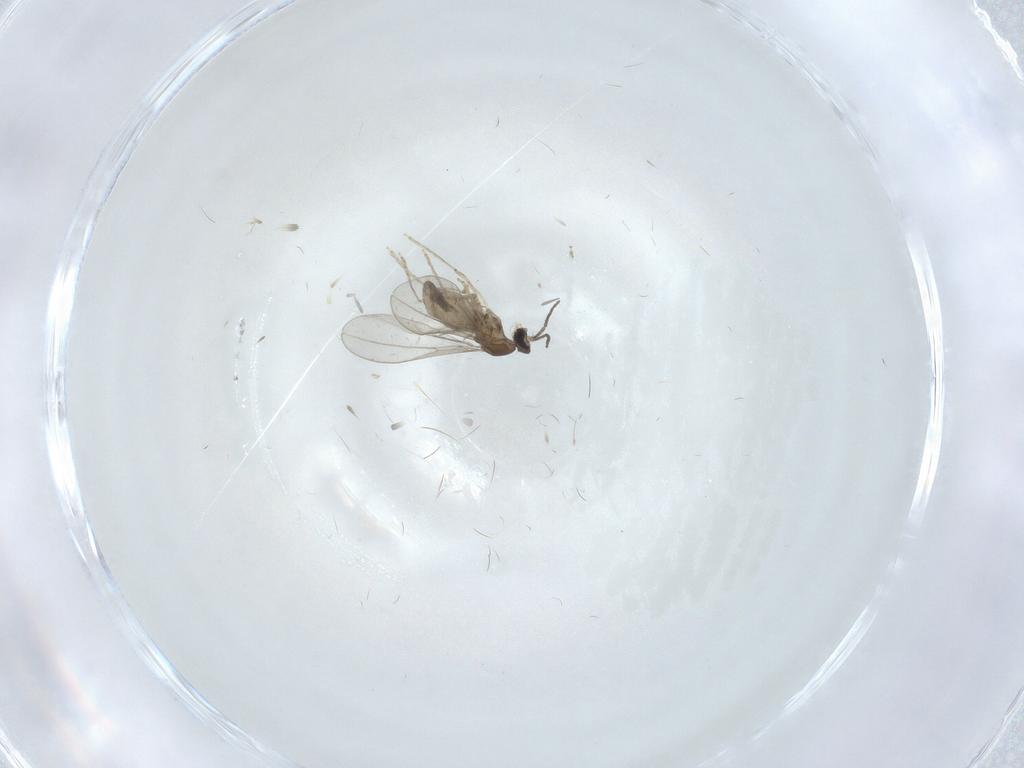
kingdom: Animalia
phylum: Arthropoda
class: Insecta
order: Diptera
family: Cecidomyiidae
